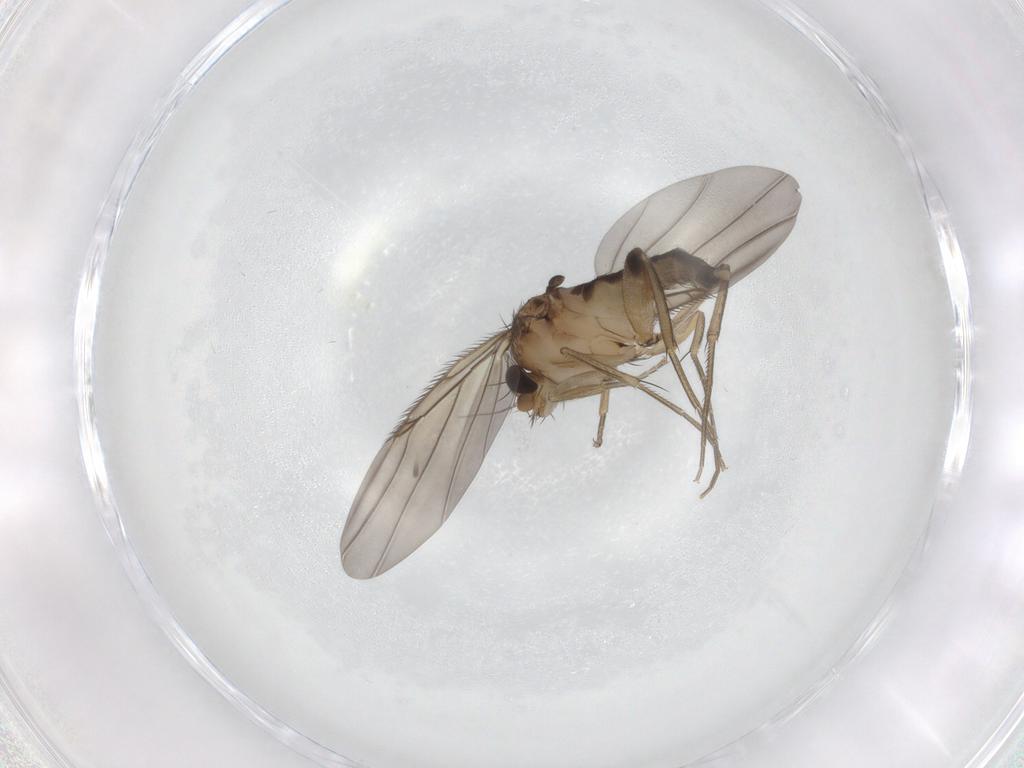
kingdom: Animalia
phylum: Arthropoda
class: Insecta
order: Diptera
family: Phoridae
